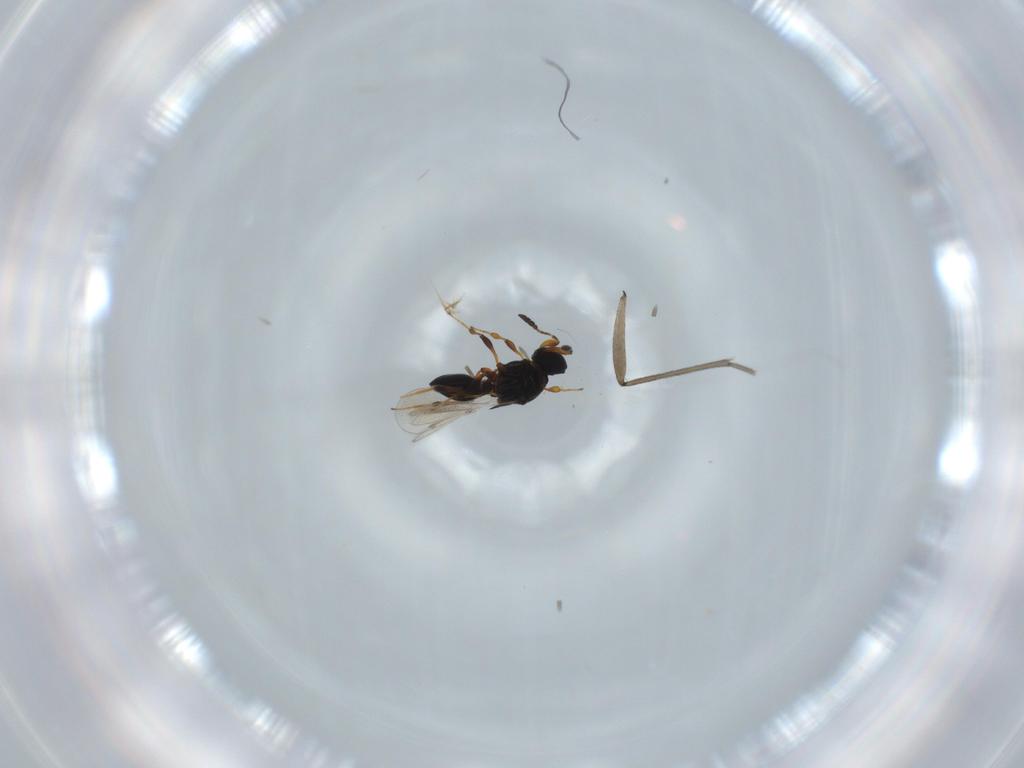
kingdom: Animalia
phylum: Arthropoda
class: Insecta
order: Hymenoptera
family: Platygastridae
